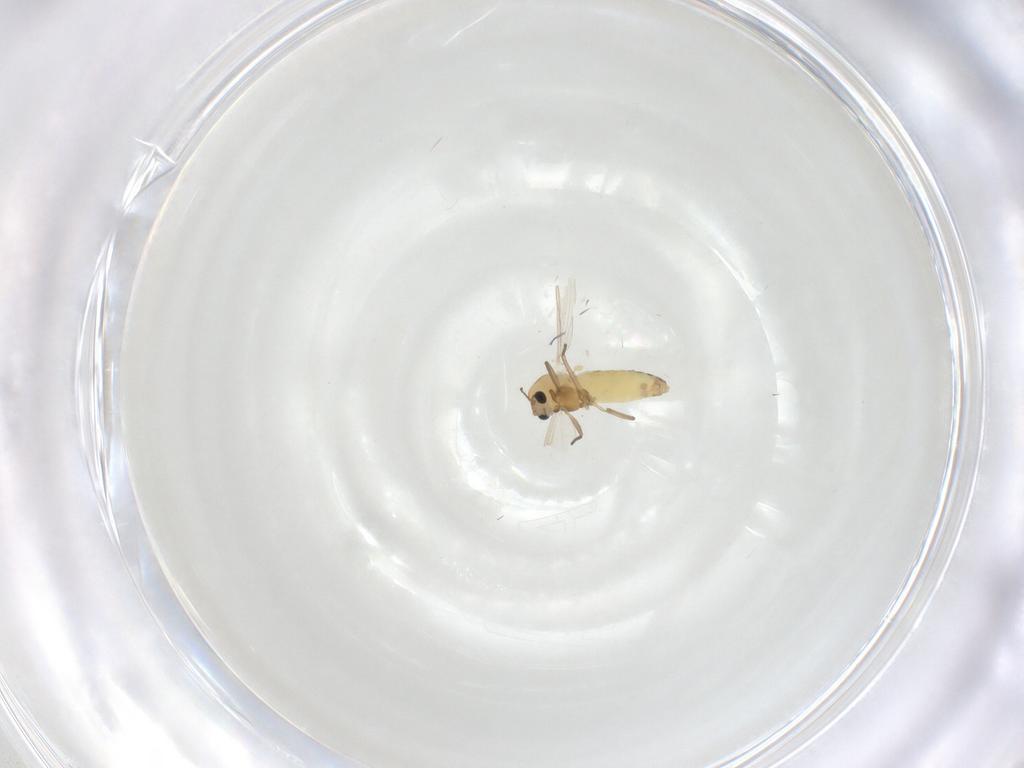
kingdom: Animalia
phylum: Arthropoda
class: Insecta
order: Diptera
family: Chironomidae
